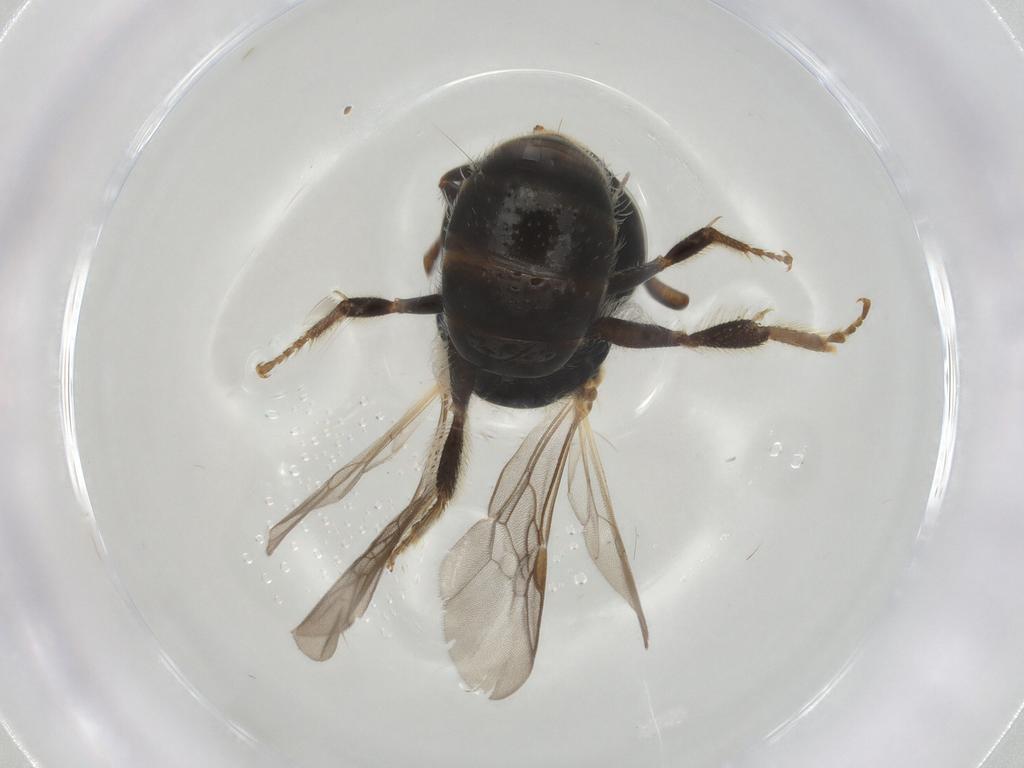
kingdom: Animalia
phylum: Arthropoda
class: Insecta
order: Hymenoptera
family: Halictidae
